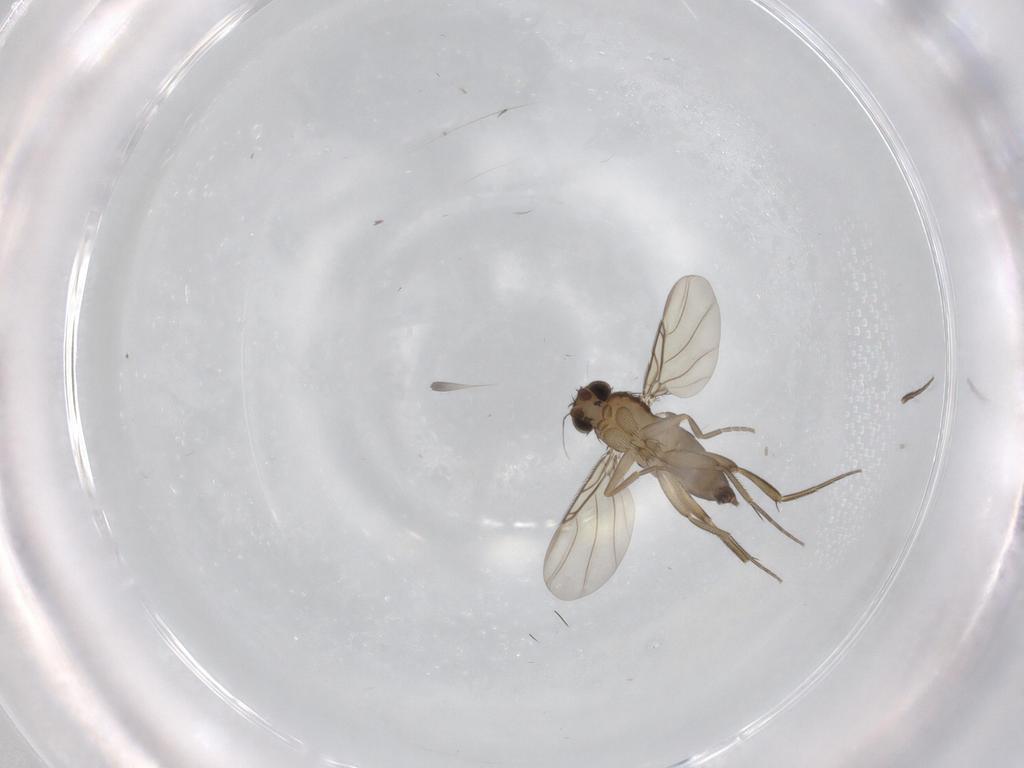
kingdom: Animalia
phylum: Arthropoda
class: Insecta
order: Diptera
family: Phoridae
